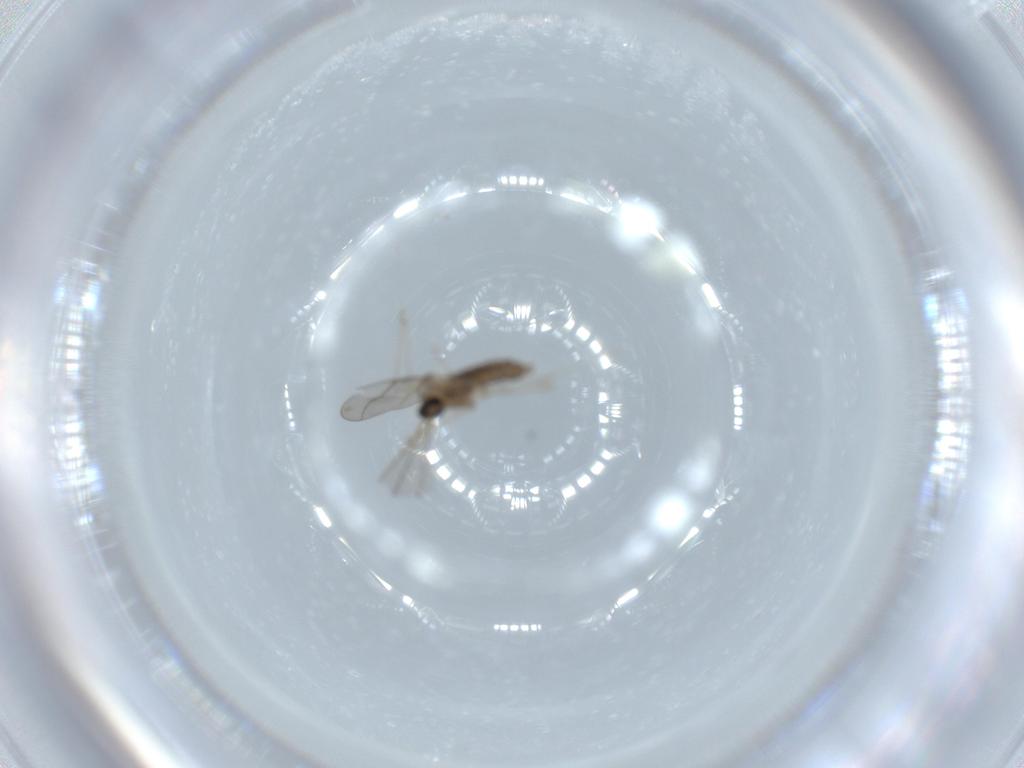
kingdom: Animalia
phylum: Arthropoda
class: Insecta
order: Diptera
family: Cecidomyiidae
